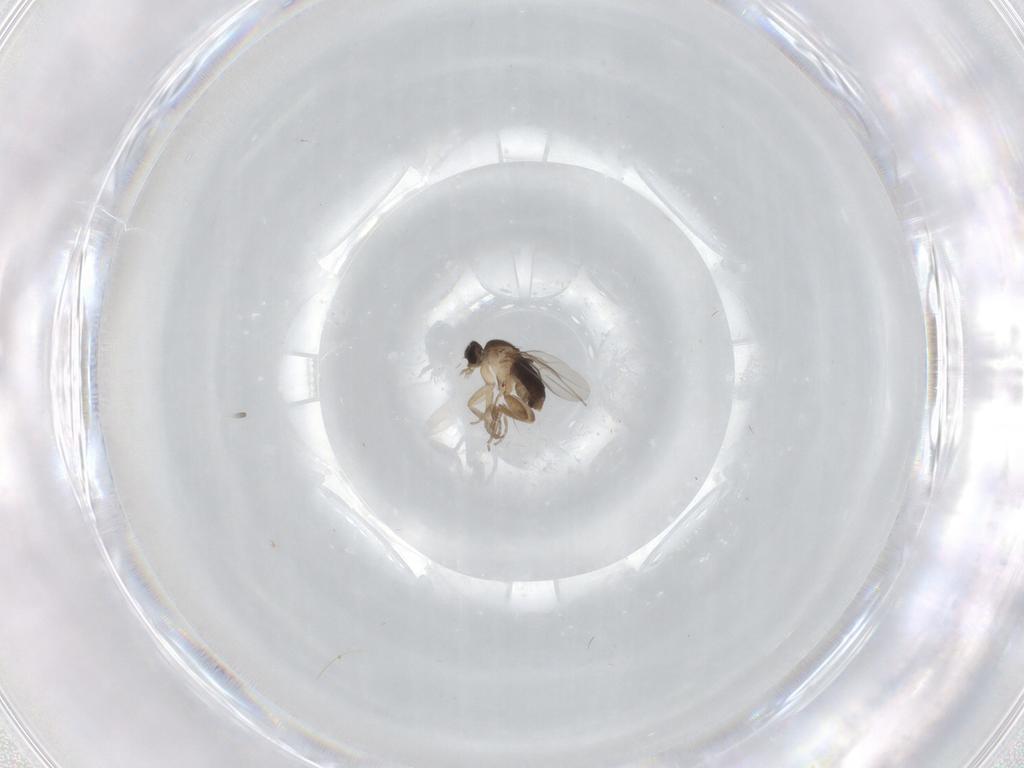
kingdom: Animalia
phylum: Arthropoda
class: Insecta
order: Diptera
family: Phoridae
